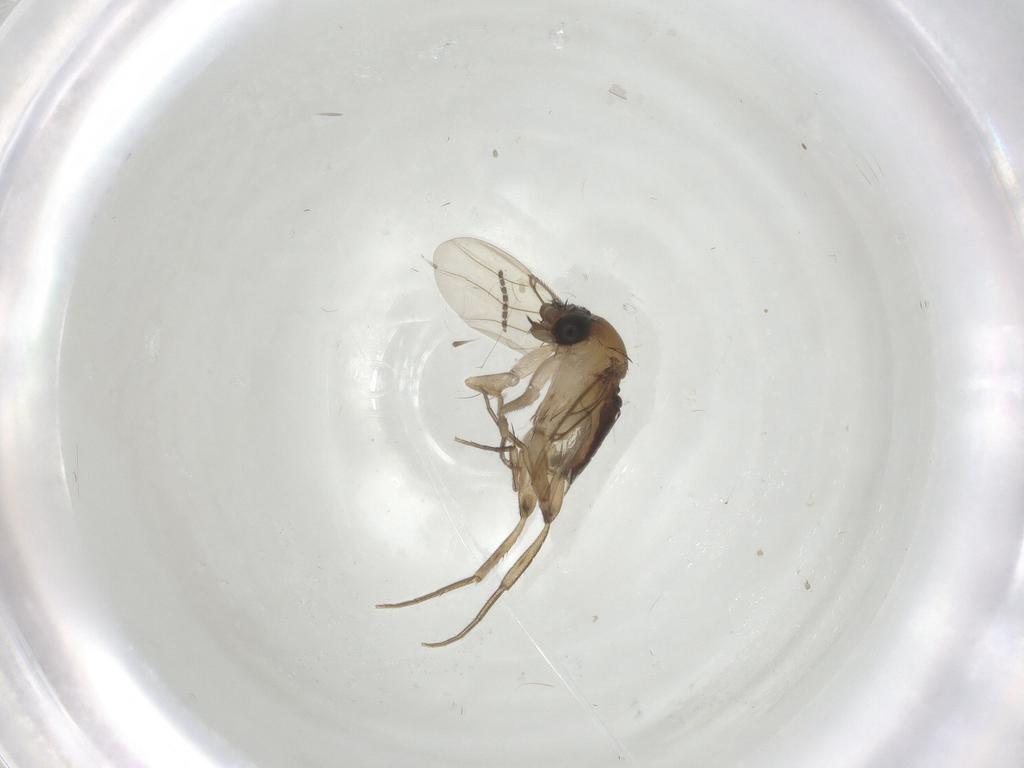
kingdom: Animalia
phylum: Arthropoda
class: Insecta
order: Diptera
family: Phoridae
